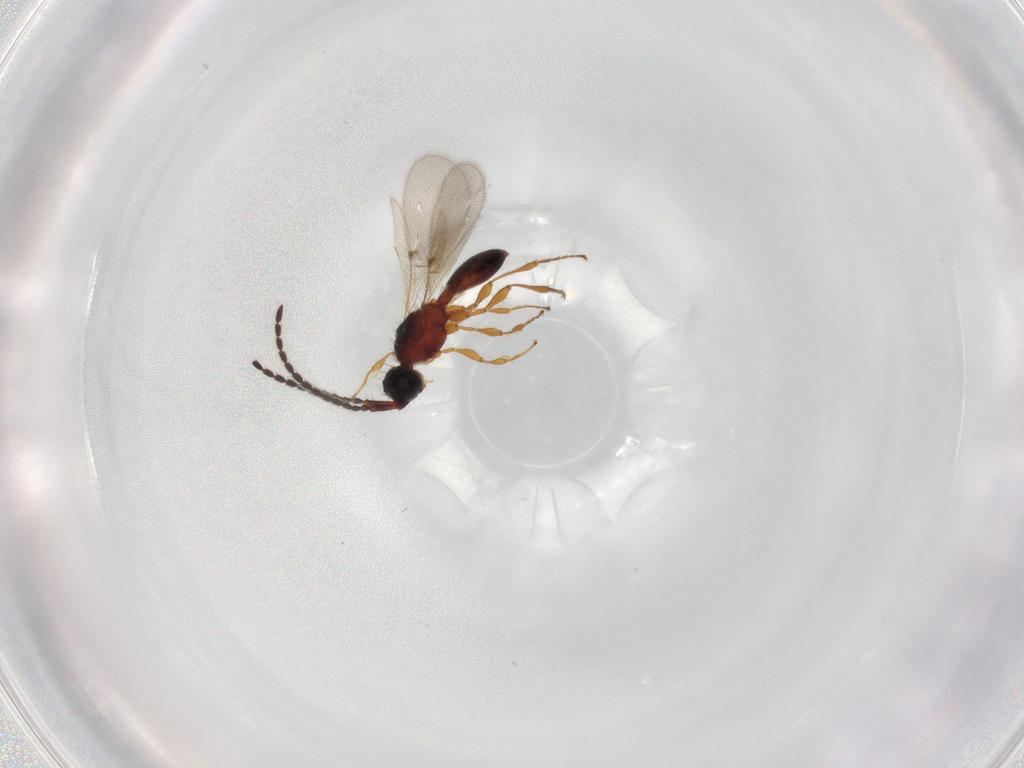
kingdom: Animalia
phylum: Arthropoda
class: Insecta
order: Hymenoptera
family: Diapriidae
